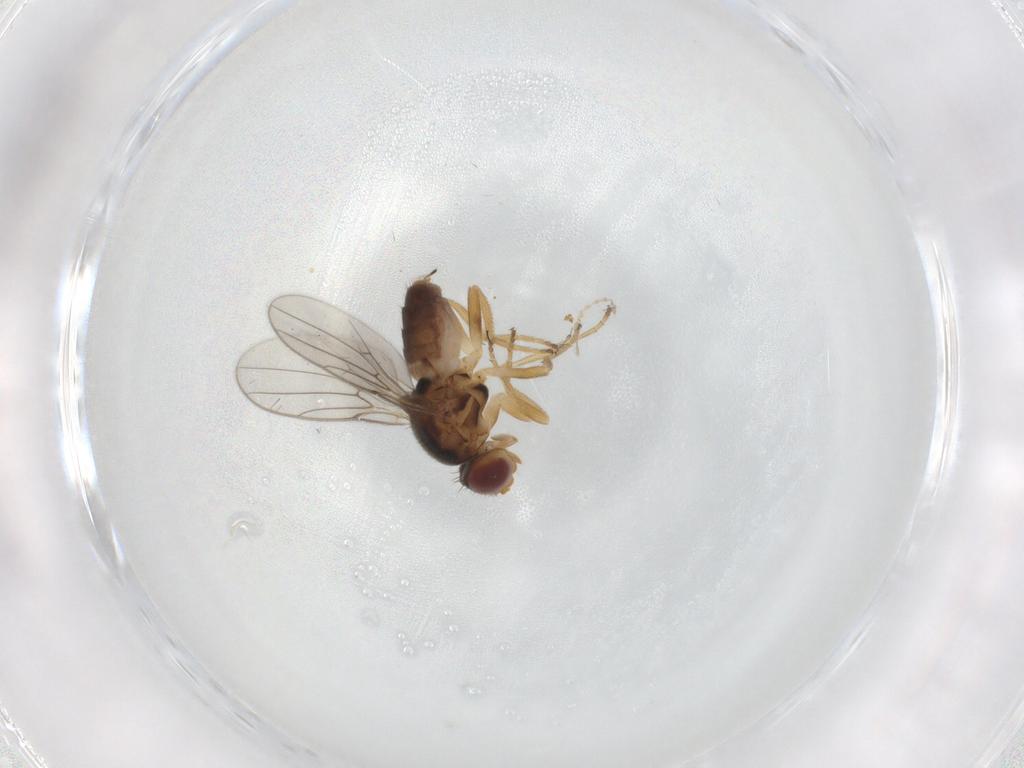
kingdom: Animalia
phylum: Arthropoda
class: Insecta
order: Diptera
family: Chloropidae
